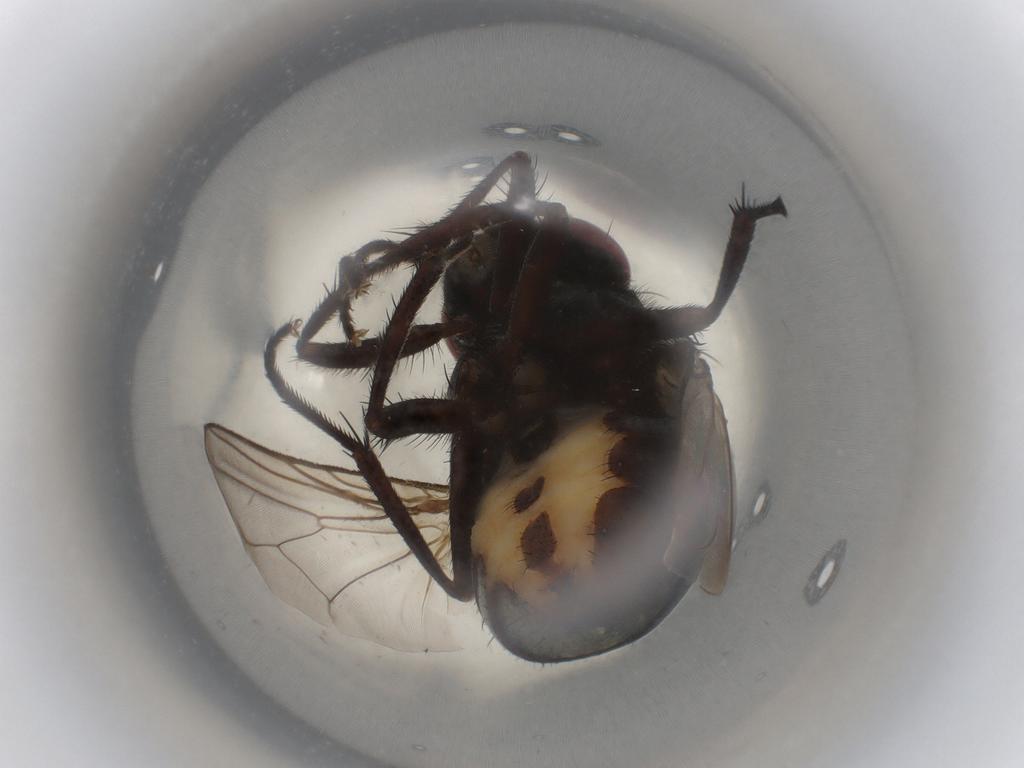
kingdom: Animalia
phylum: Arthropoda
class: Insecta
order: Diptera
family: Muscidae
